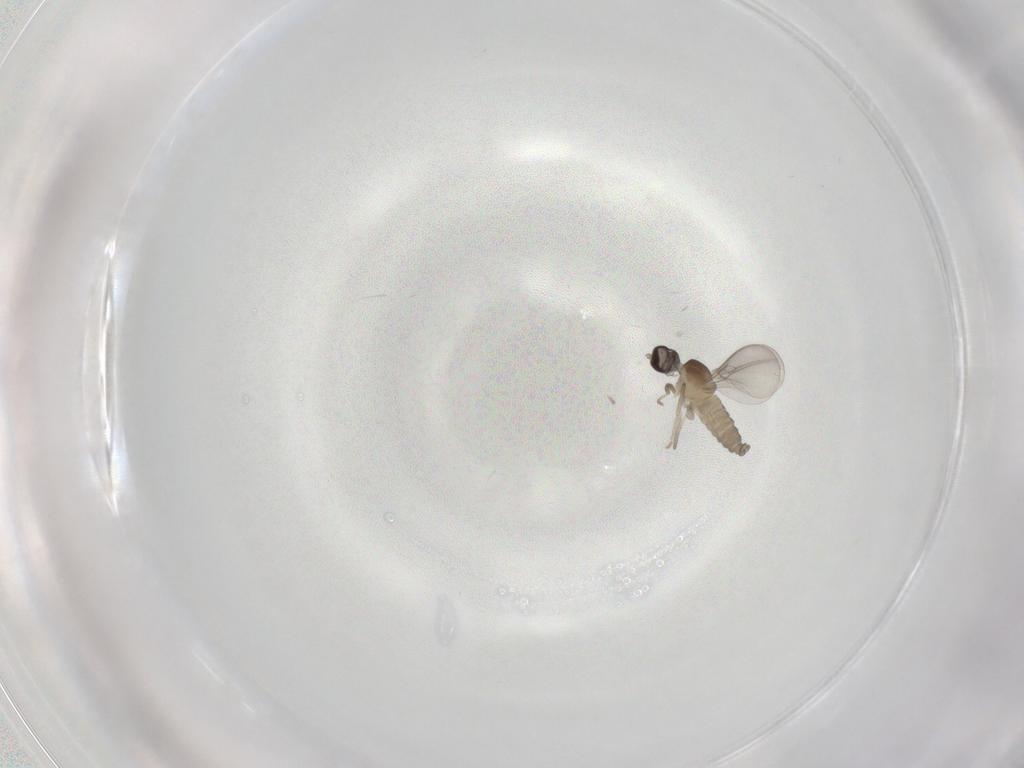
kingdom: Animalia
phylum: Arthropoda
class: Insecta
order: Diptera
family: Cecidomyiidae
